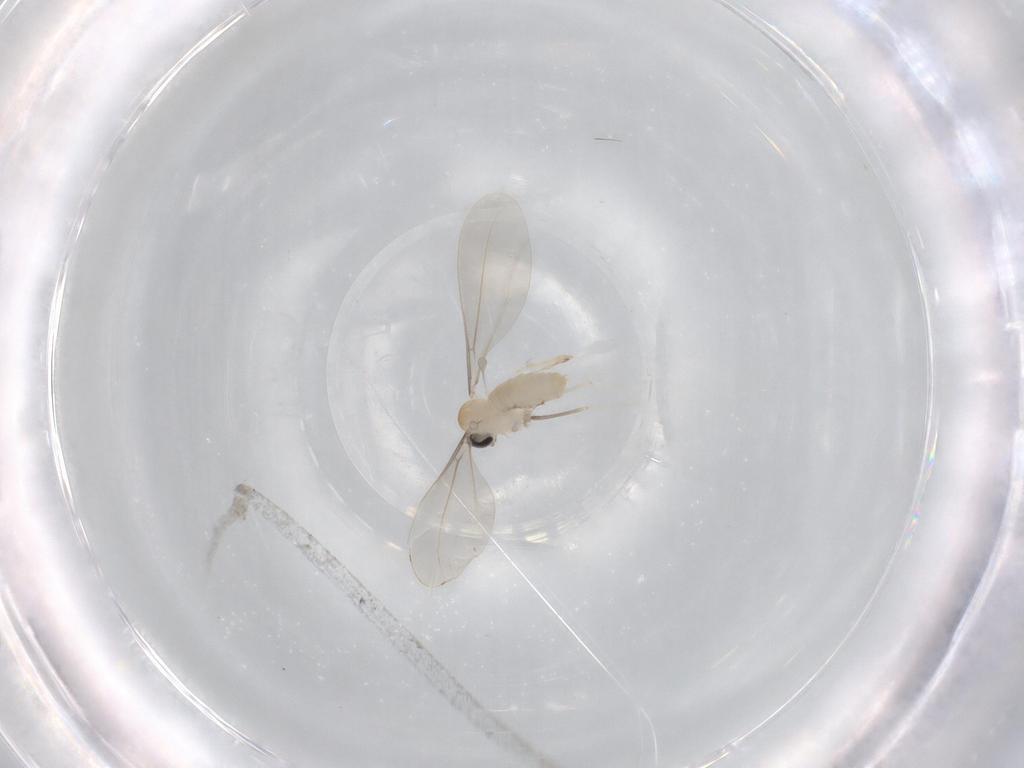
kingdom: Animalia
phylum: Arthropoda
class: Insecta
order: Diptera
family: Cecidomyiidae
